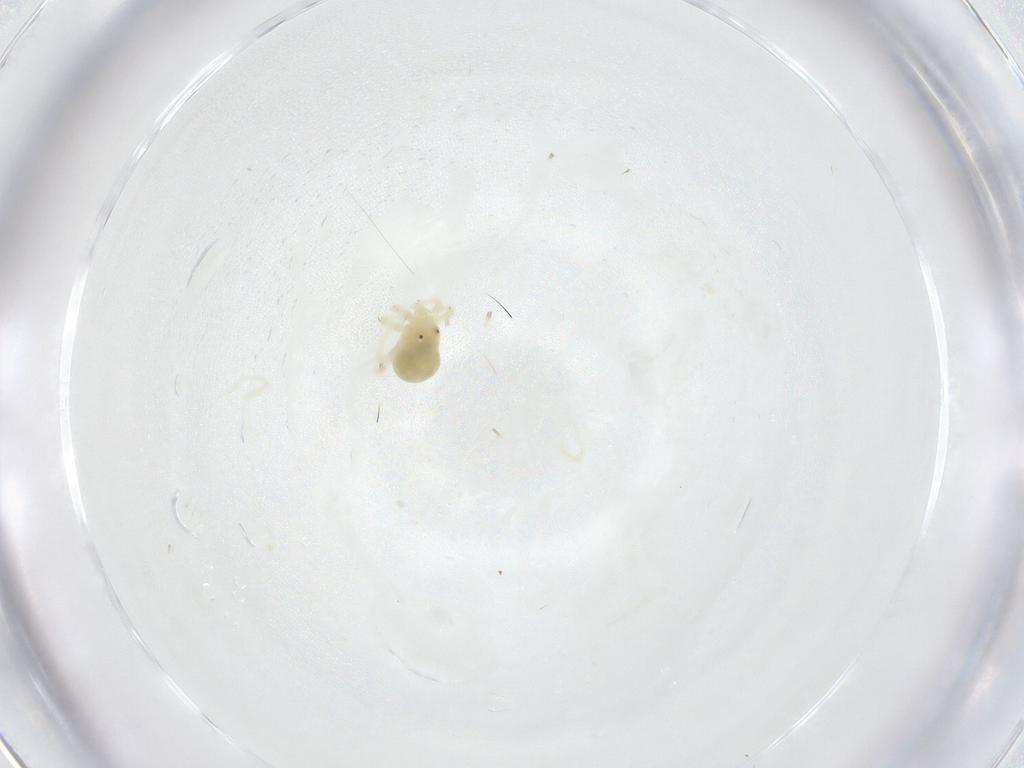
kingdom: Animalia
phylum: Arthropoda
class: Arachnida
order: Trombidiformes
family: Anystidae
